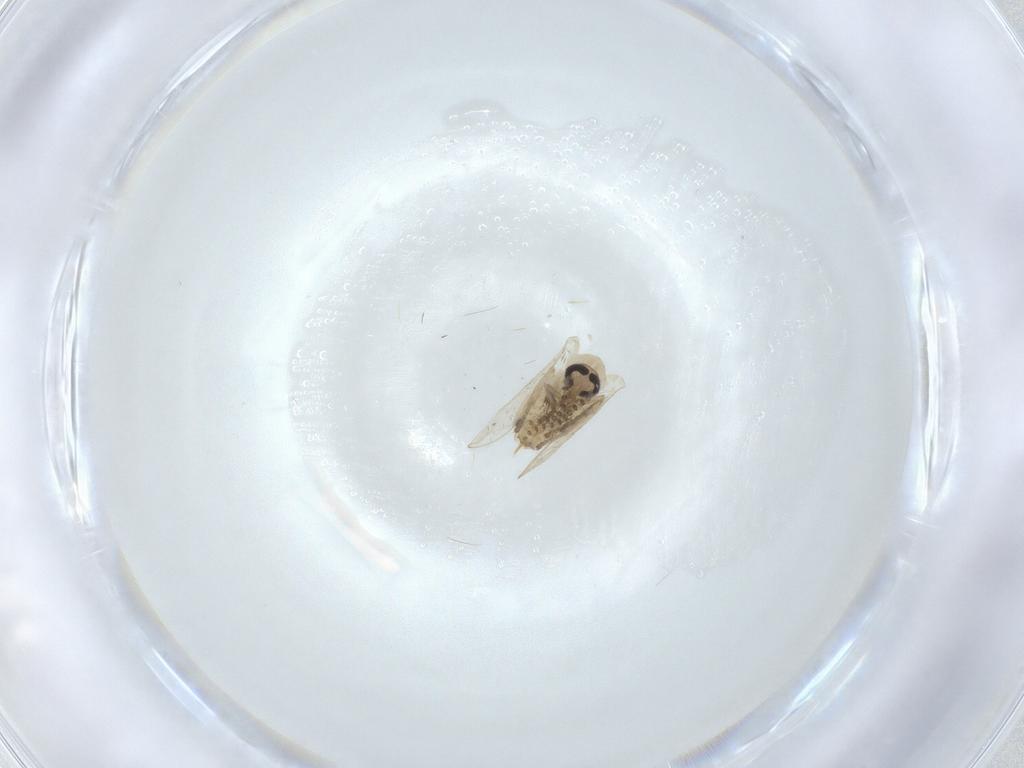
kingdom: Animalia
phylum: Arthropoda
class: Insecta
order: Diptera
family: Psychodidae
